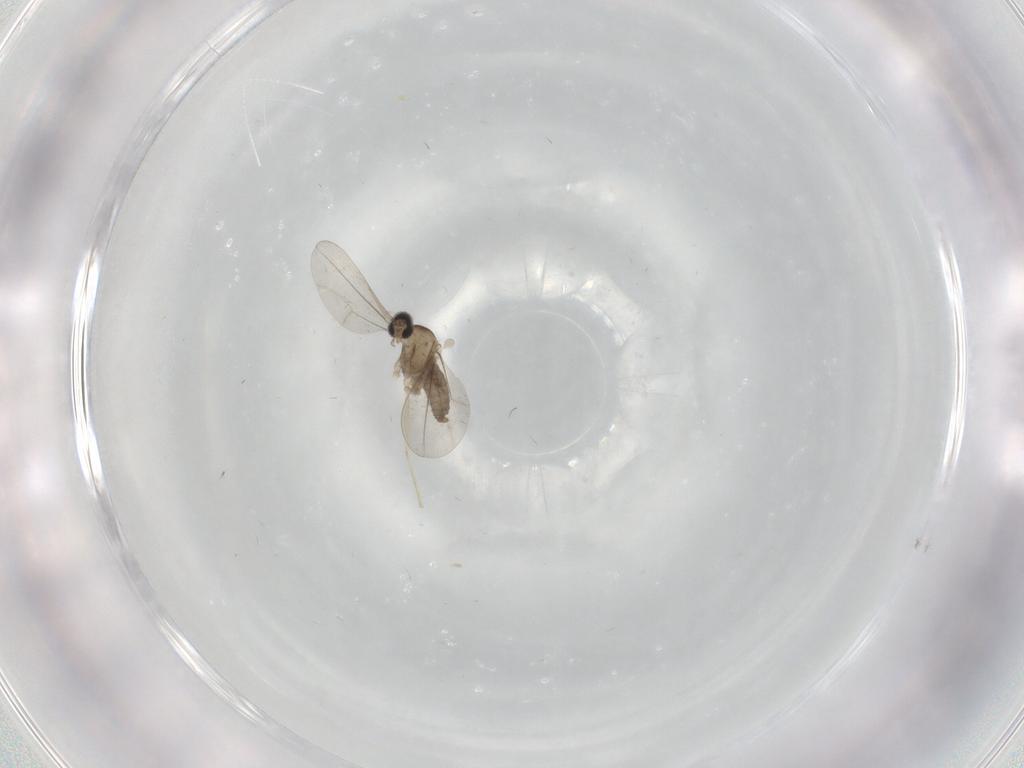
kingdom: Animalia
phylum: Arthropoda
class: Insecta
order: Diptera
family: Cecidomyiidae
